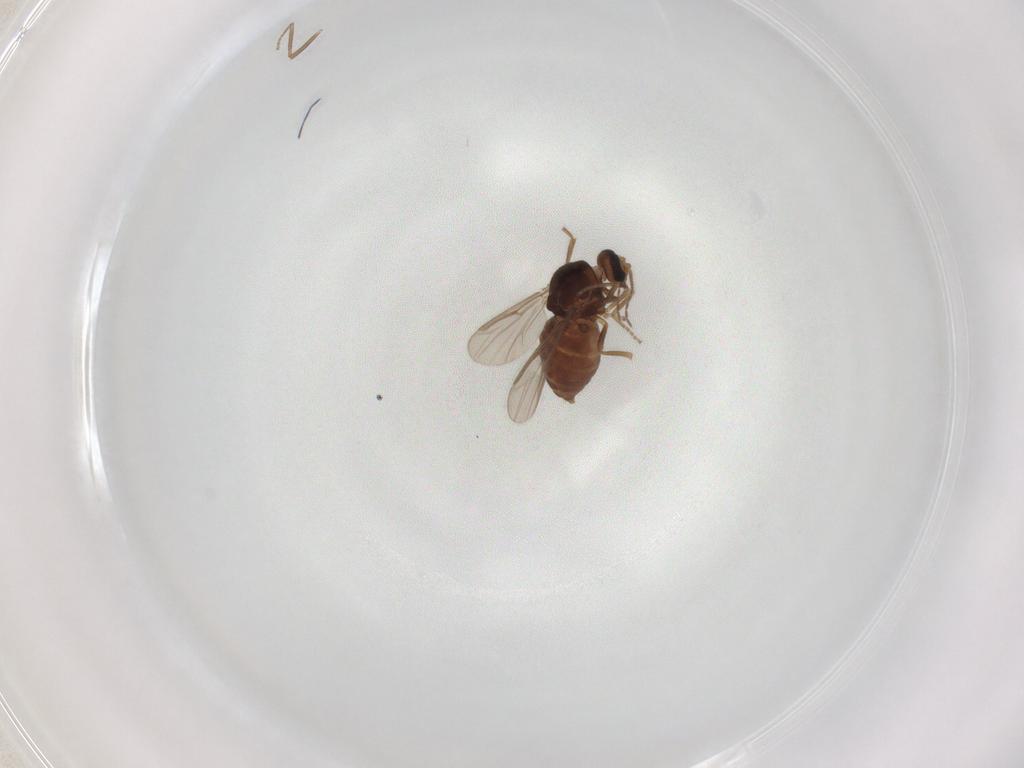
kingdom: Animalia
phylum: Arthropoda
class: Insecta
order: Diptera
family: Ceratopogonidae
